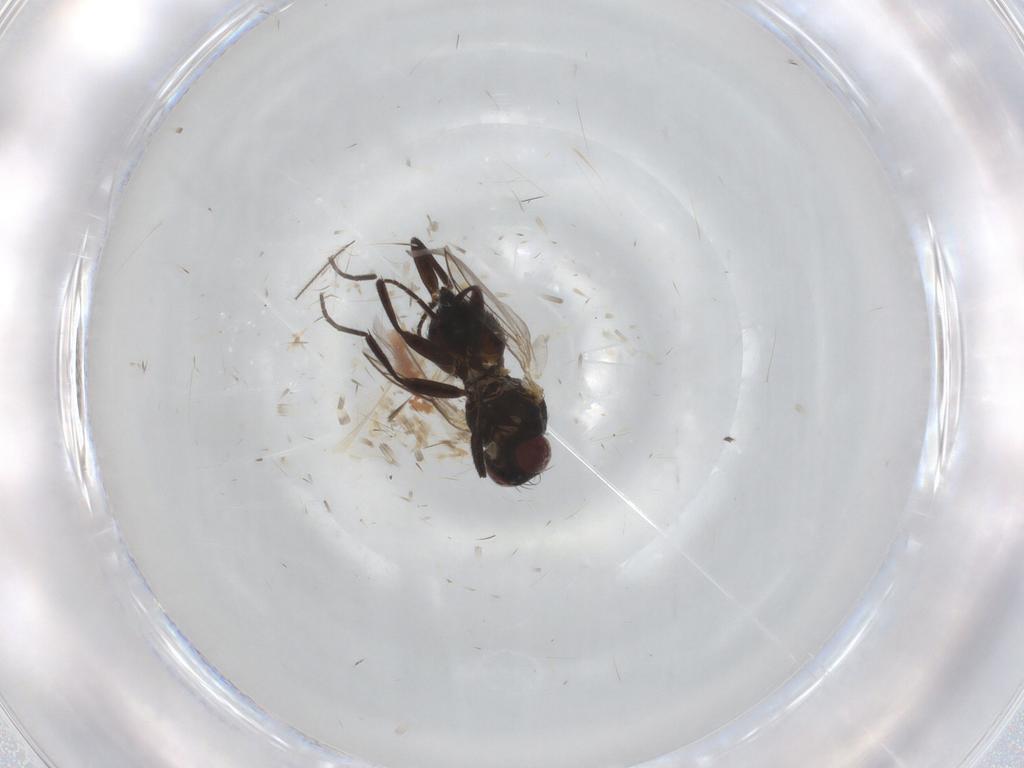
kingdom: Animalia
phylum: Arthropoda
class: Insecta
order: Diptera
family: Agromyzidae
